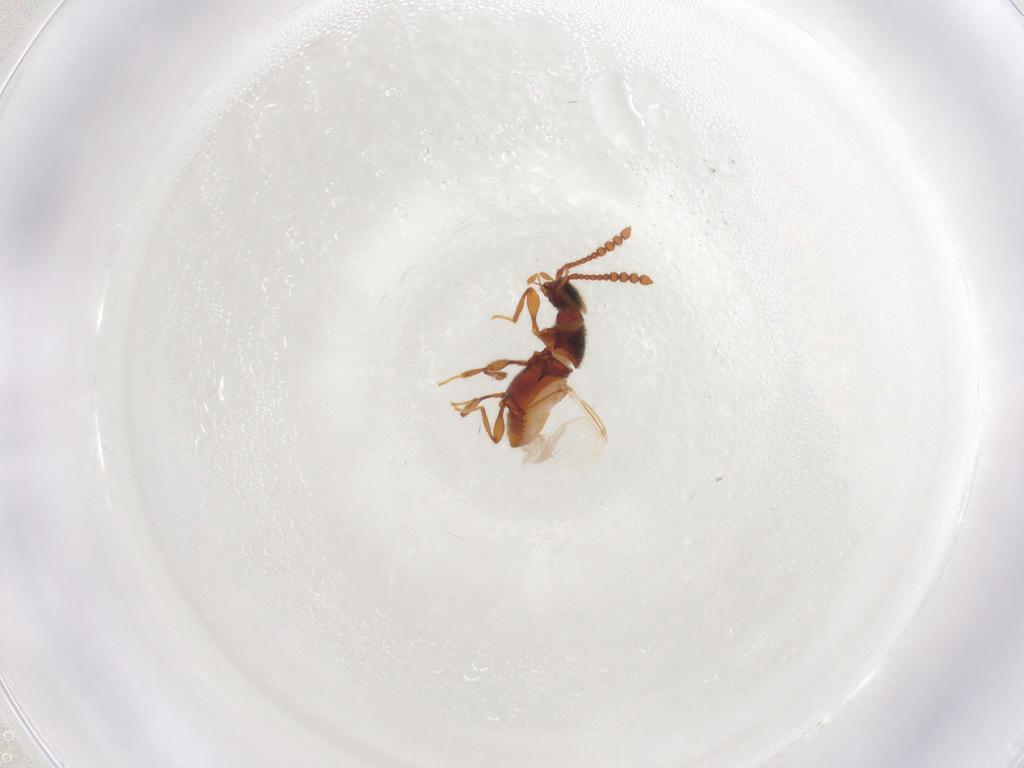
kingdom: Animalia
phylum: Arthropoda
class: Insecta
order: Coleoptera
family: Staphylinidae
